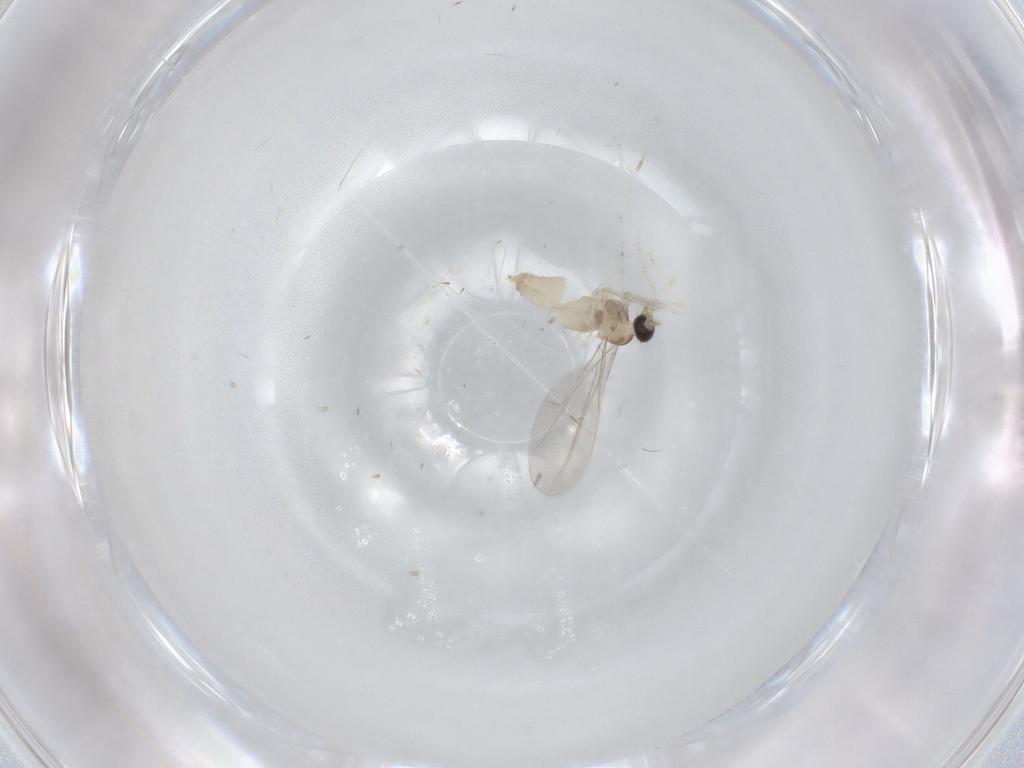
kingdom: Animalia
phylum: Arthropoda
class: Insecta
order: Diptera
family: Cecidomyiidae
